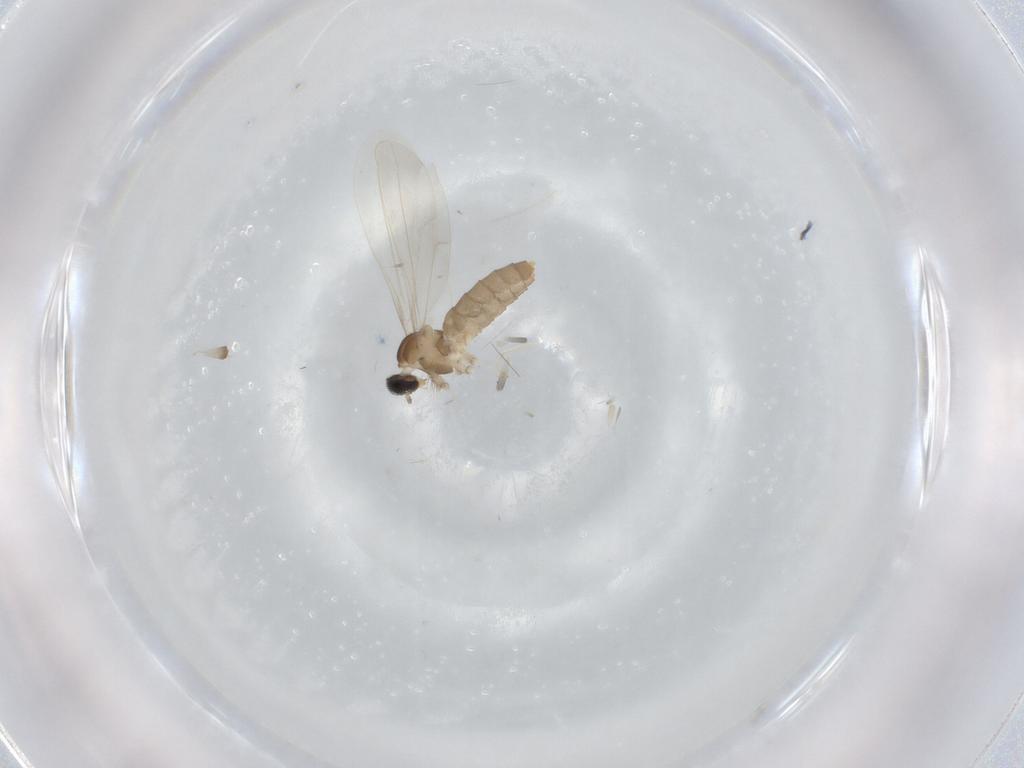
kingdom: Animalia
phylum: Arthropoda
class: Insecta
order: Diptera
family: Cecidomyiidae
